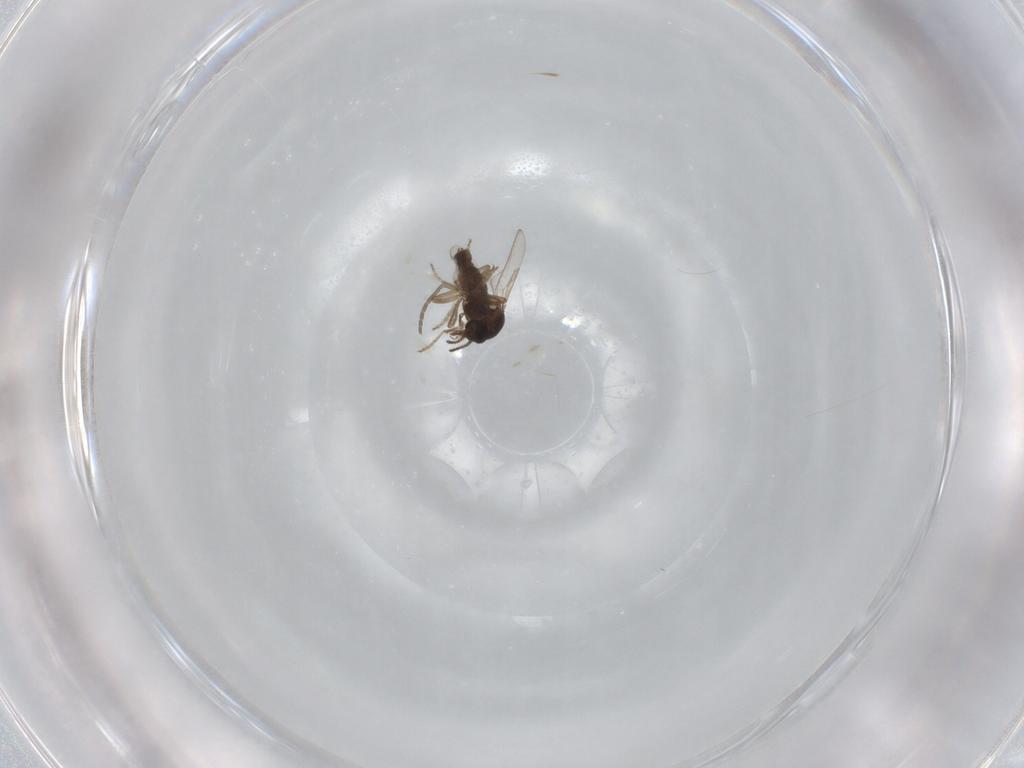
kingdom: Animalia
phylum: Arthropoda
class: Insecta
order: Diptera
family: Ceratopogonidae
